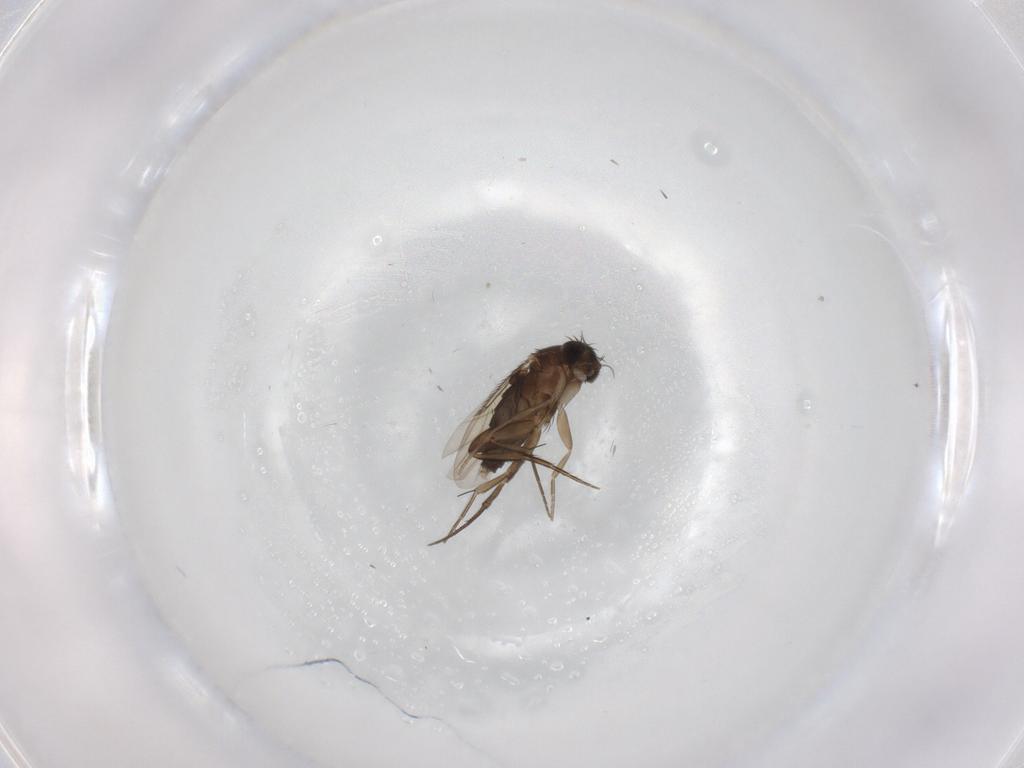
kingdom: Animalia
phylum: Arthropoda
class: Insecta
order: Diptera
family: Phoridae
